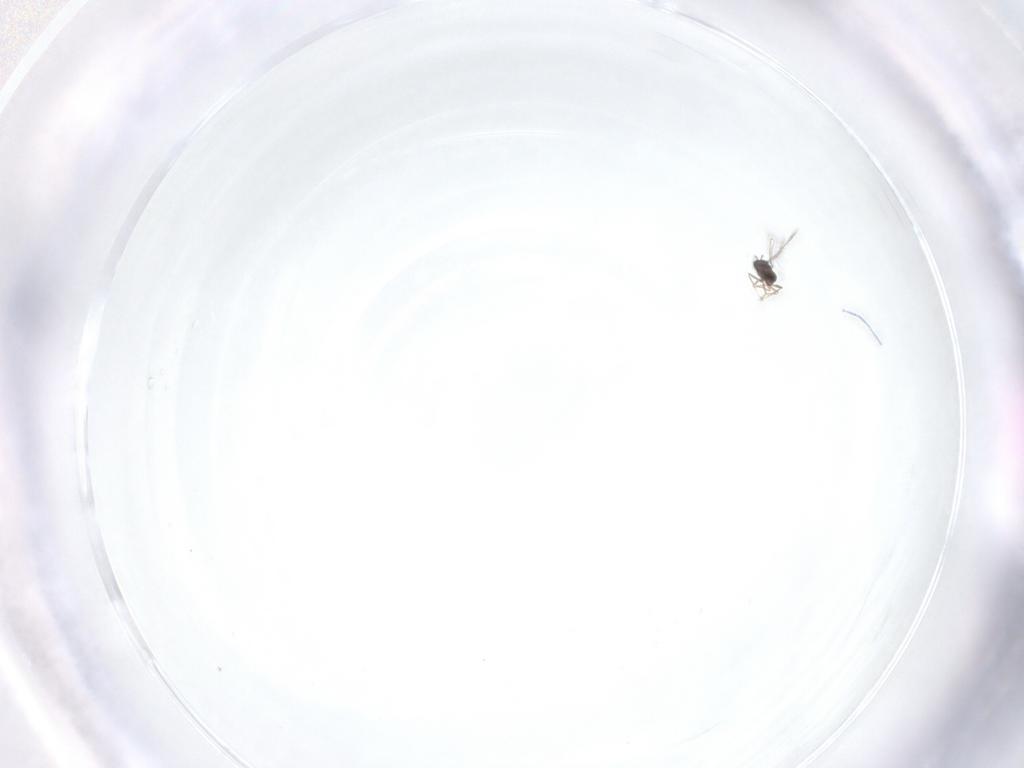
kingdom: Animalia
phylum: Arthropoda
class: Insecta
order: Hymenoptera
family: Mymaridae
